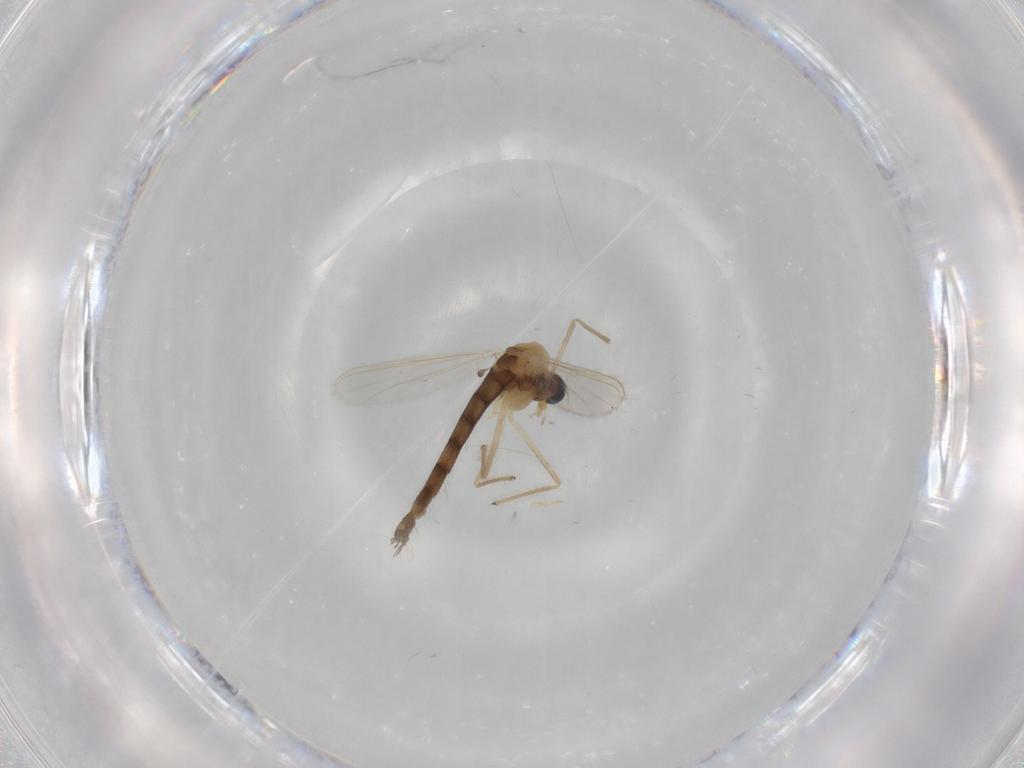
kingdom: Animalia
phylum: Arthropoda
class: Insecta
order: Diptera
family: Chironomidae
